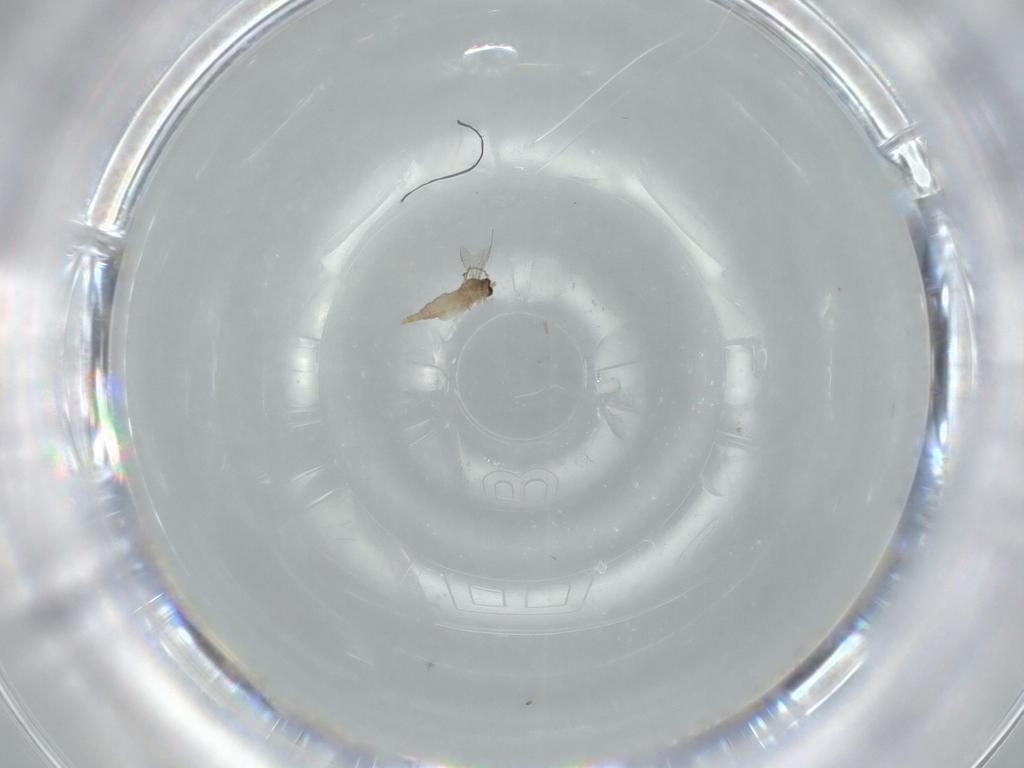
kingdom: Animalia
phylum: Arthropoda
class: Insecta
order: Diptera
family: Cecidomyiidae
